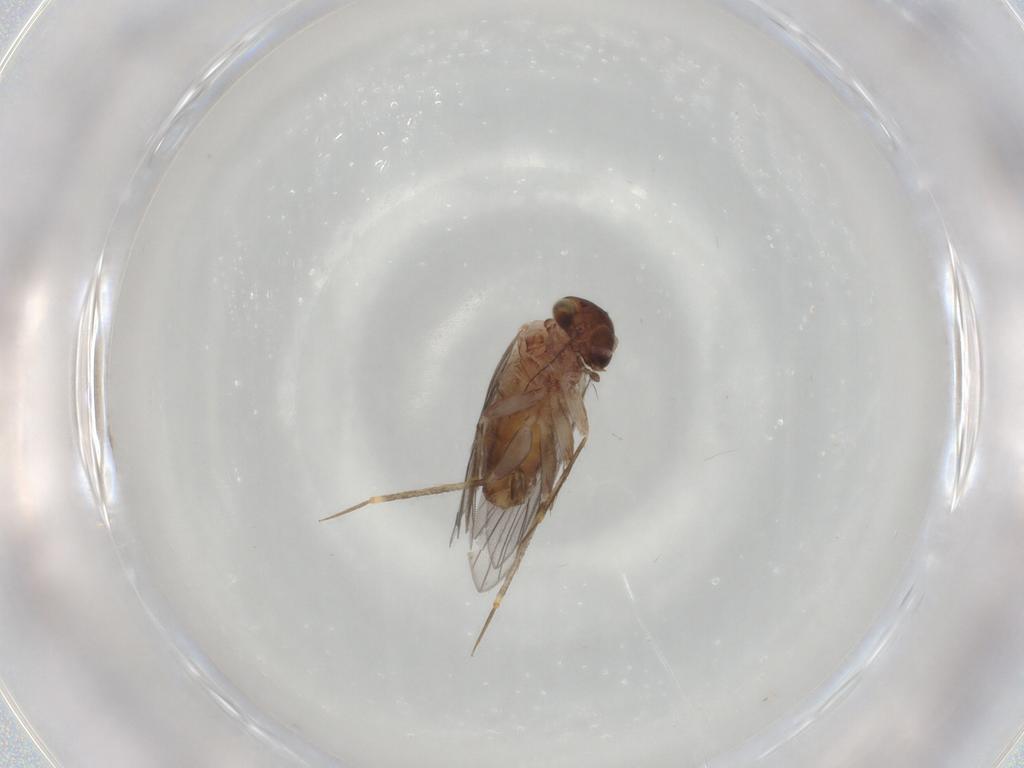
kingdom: Animalia
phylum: Arthropoda
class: Insecta
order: Psocodea
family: Lepidopsocidae
